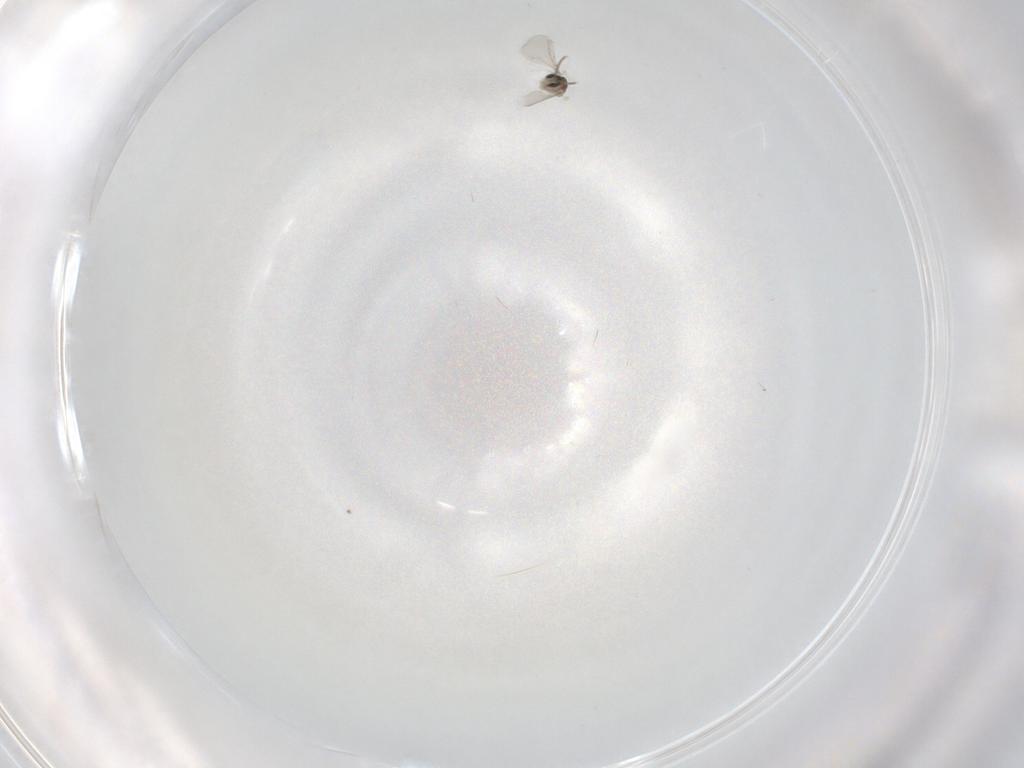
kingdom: Animalia
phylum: Arthropoda
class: Insecta
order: Diptera
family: Cecidomyiidae
